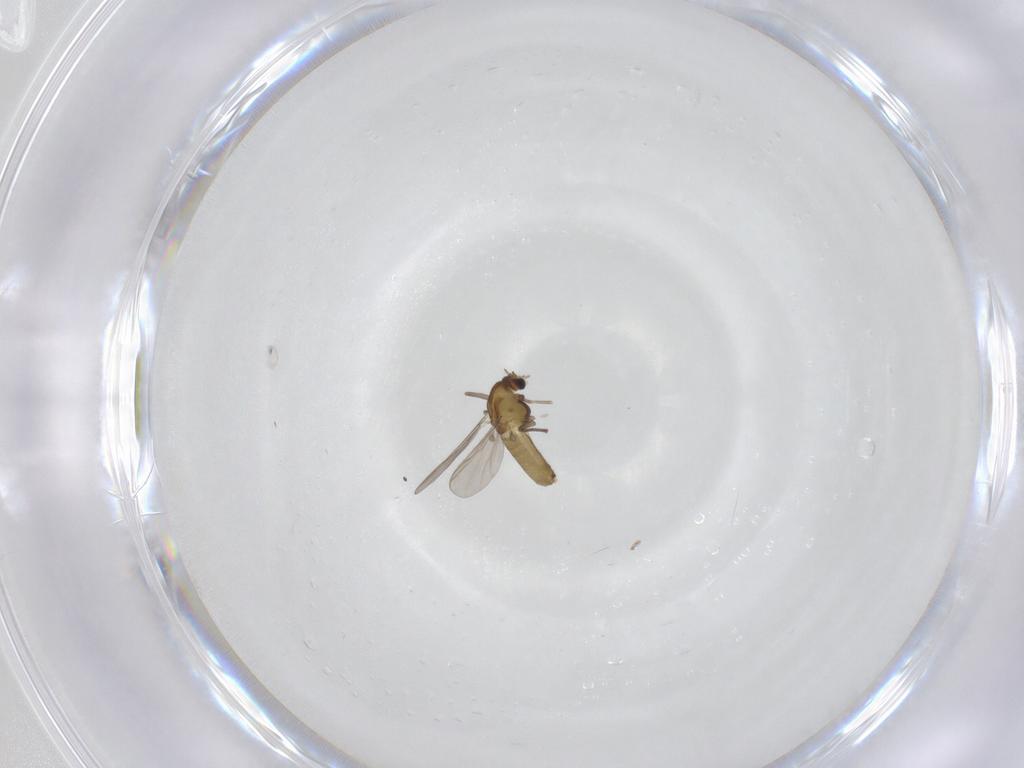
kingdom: Animalia
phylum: Arthropoda
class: Insecta
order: Diptera
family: Chironomidae
